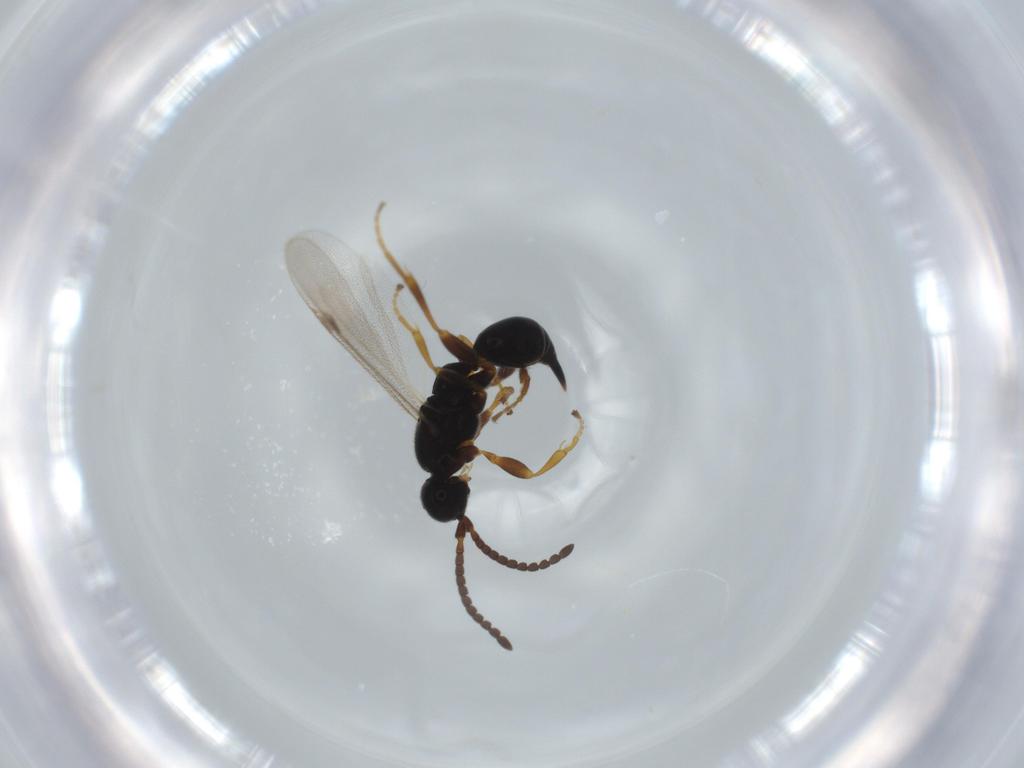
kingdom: Animalia
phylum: Arthropoda
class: Insecta
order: Hymenoptera
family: Proctotrupidae
